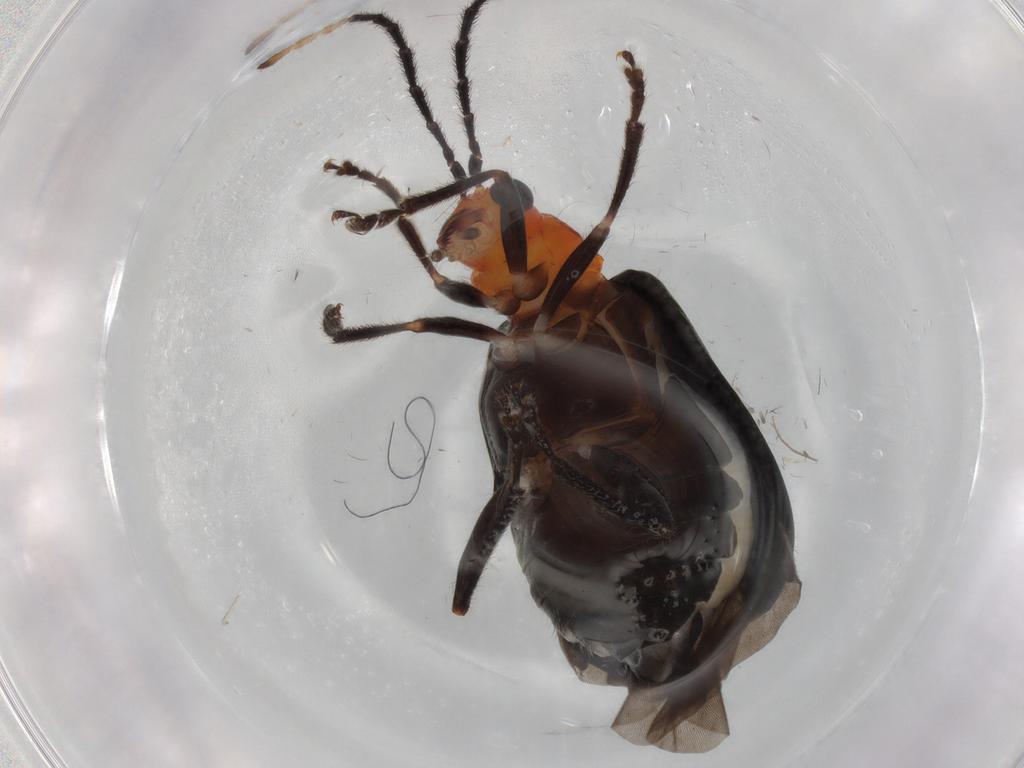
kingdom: Animalia
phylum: Arthropoda
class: Insecta
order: Coleoptera
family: Chrysomelidae
